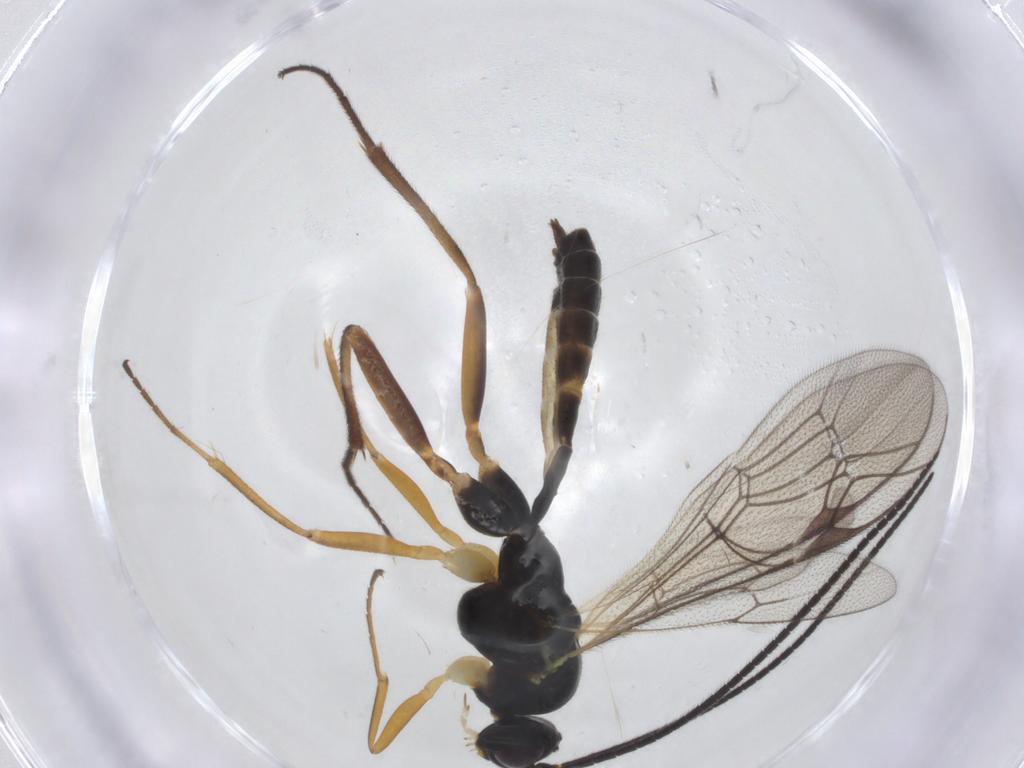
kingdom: Animalia
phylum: Arthropoda
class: Insecta
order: Hymenoptera
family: Ichneumonidae
